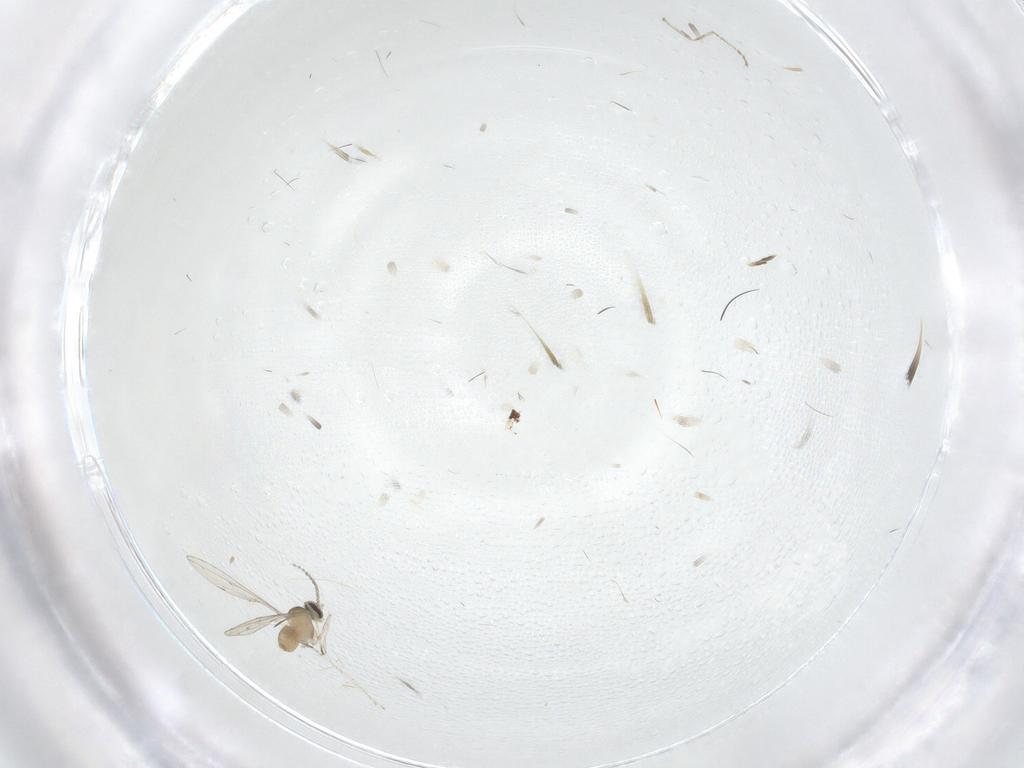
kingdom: Animalia
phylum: Arthropoda
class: Insecta
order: Diptera
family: Cecidomyiidae
